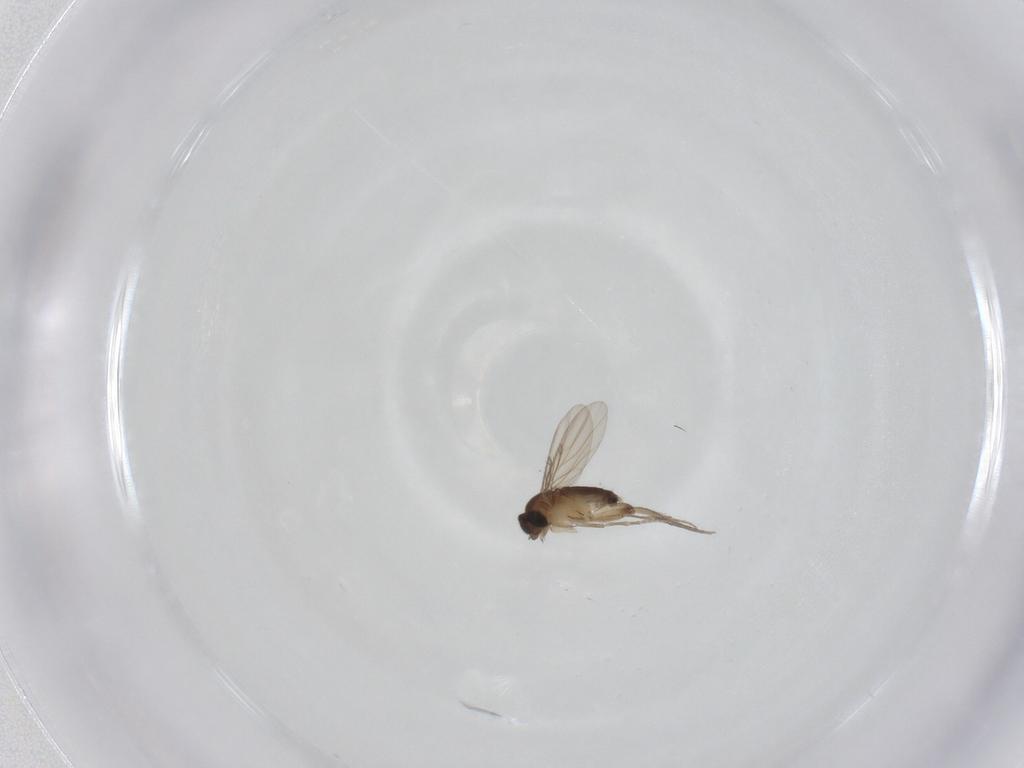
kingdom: Animalia
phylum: Arthropoda
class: Insecta
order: Diptera
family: Phoridae
